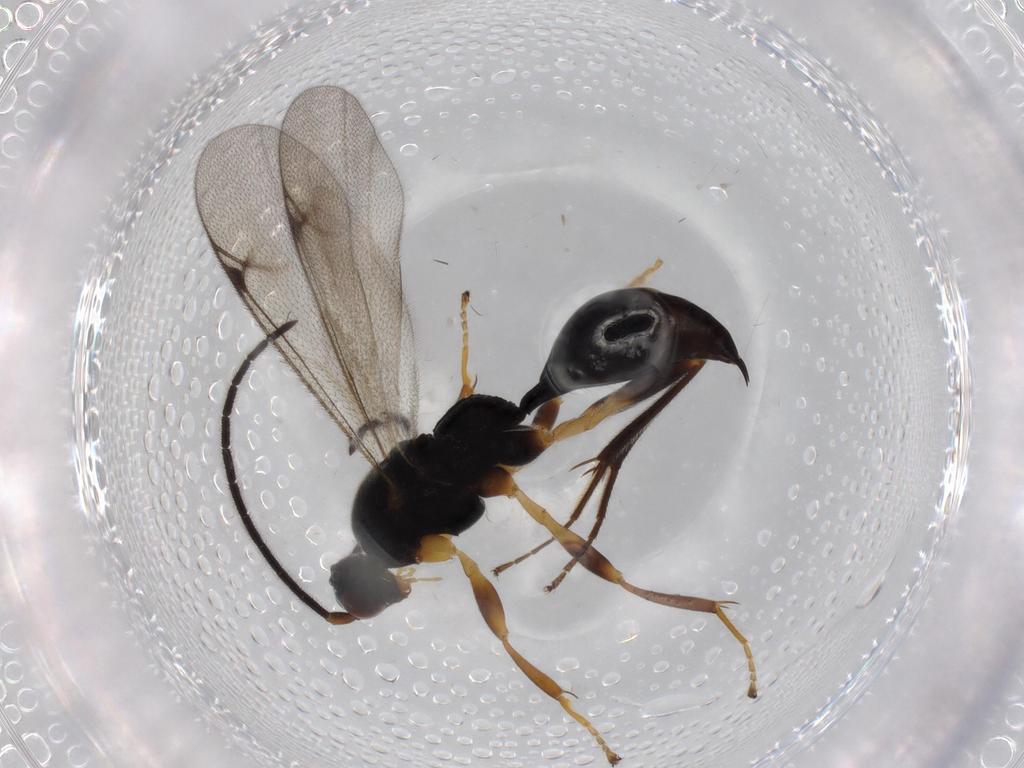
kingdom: Animalia
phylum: Arthropoda
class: Insecta
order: Hymenoptera
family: Proctotrupidae
